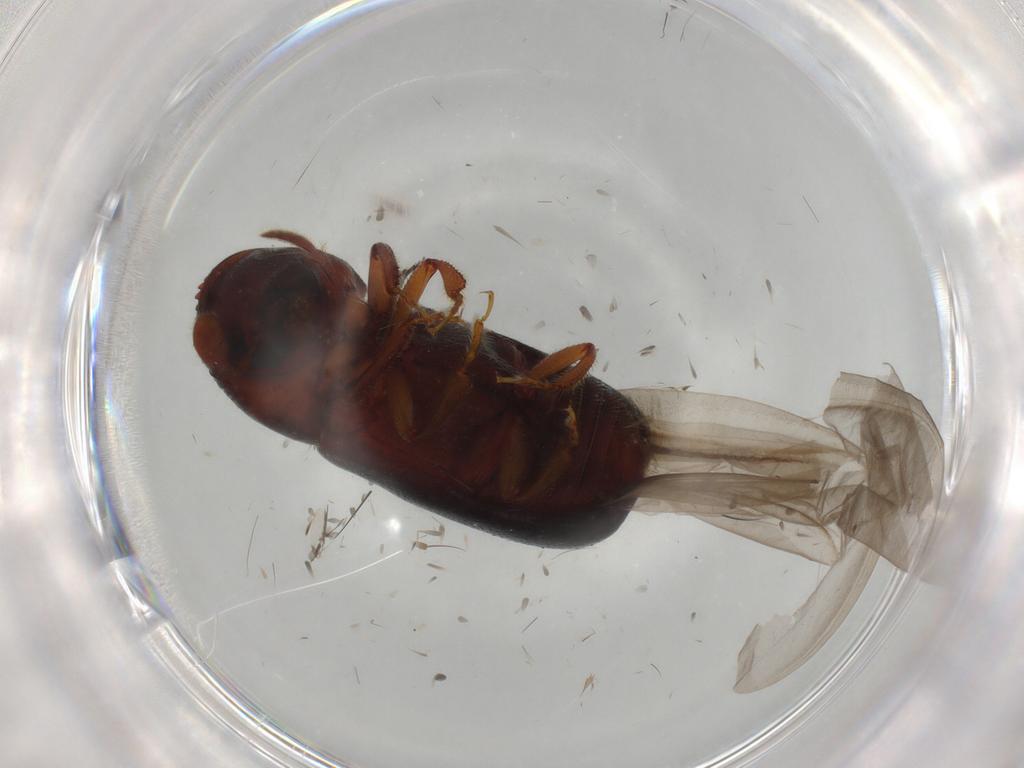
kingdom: Animalia
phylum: Arthropoda
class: Insecta
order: Coleoptera
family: Curculionidae
